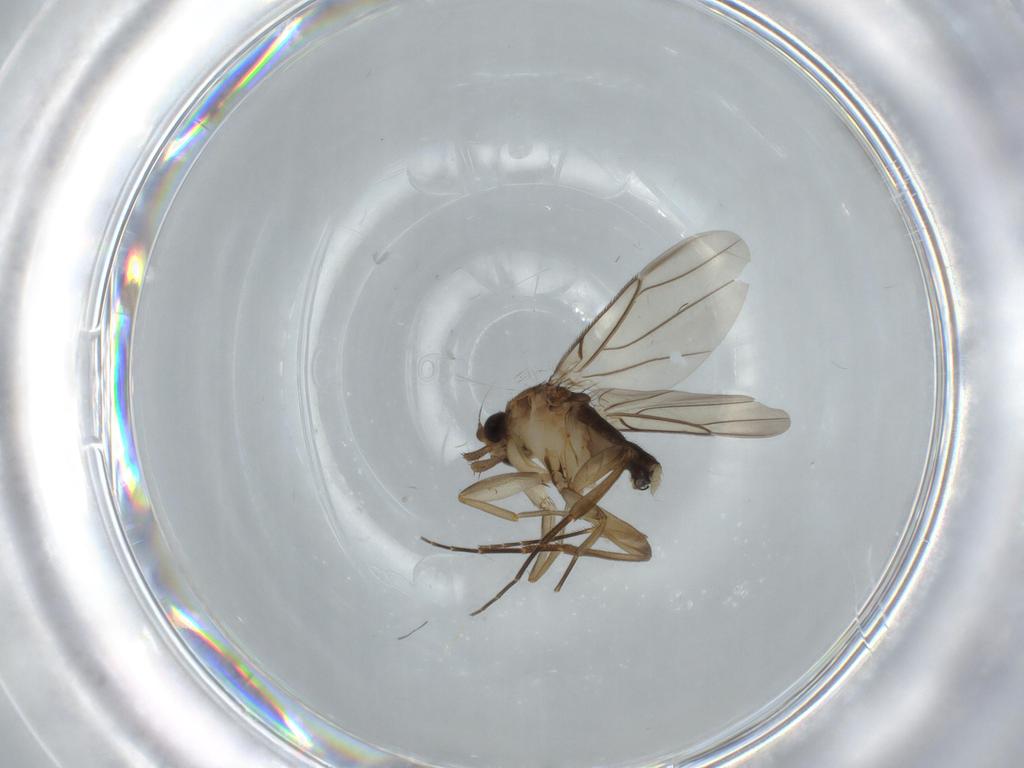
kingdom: Animalia
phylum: Arthropoda
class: Insecta
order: Diptera
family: Phoridae
